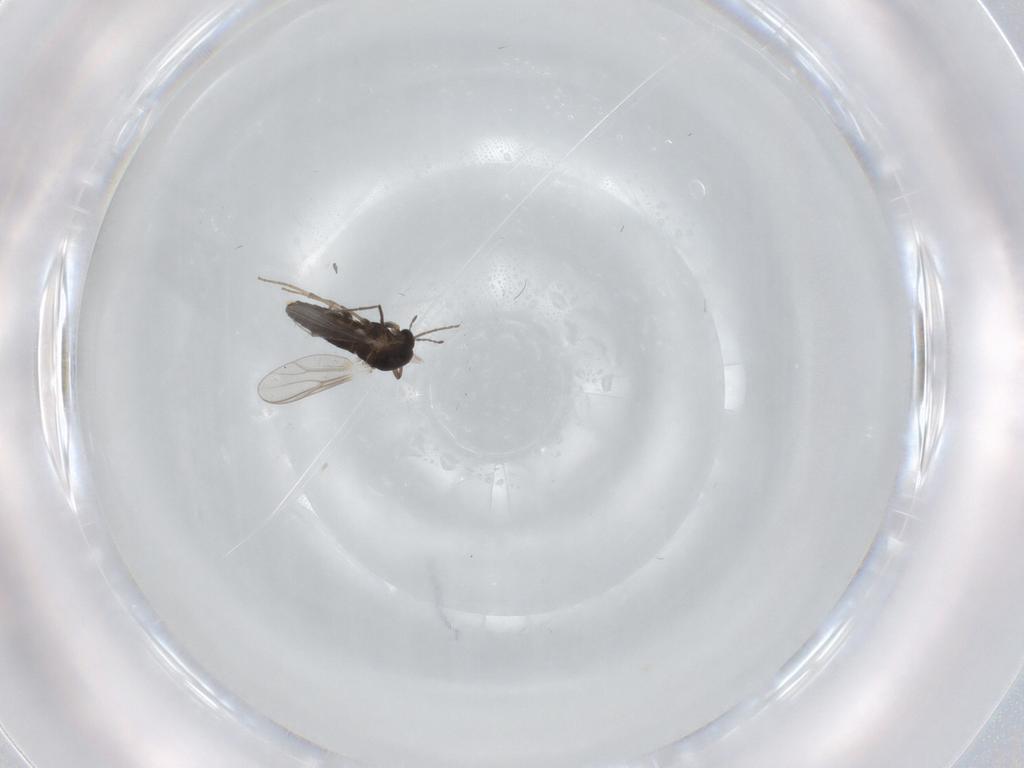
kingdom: Animalia
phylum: Arthropoda
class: Insecta
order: Diptera
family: Chironomidae
